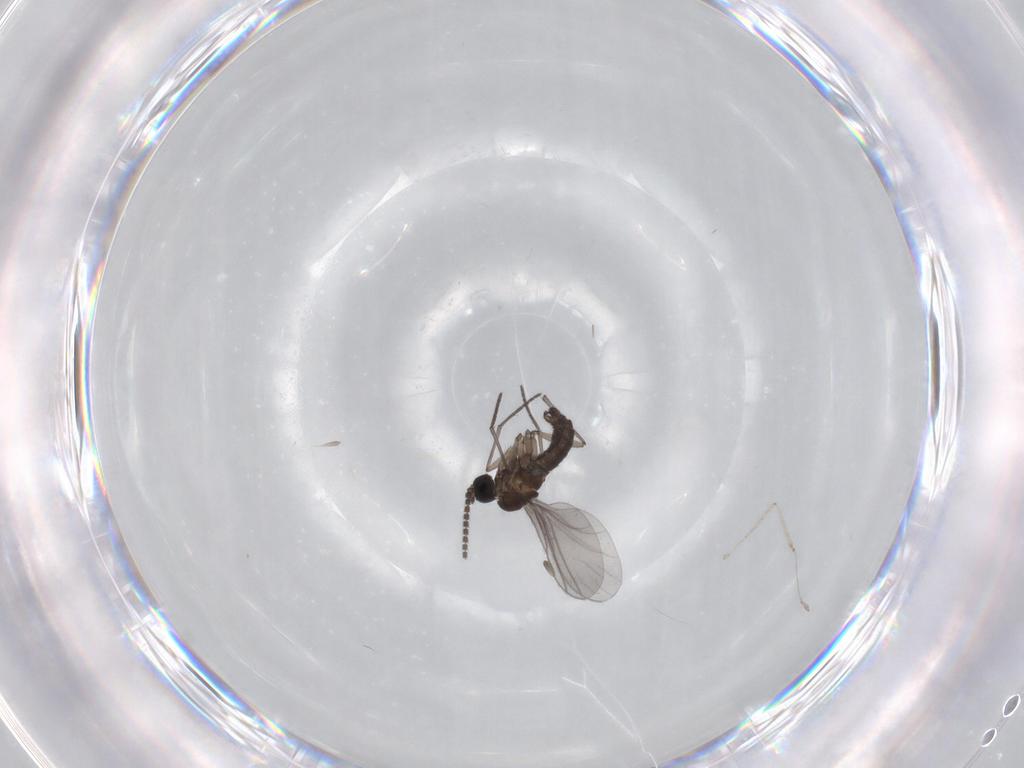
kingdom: Animalia
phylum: Arthropoda
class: Insecta
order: Diptera
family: Sciaridae
